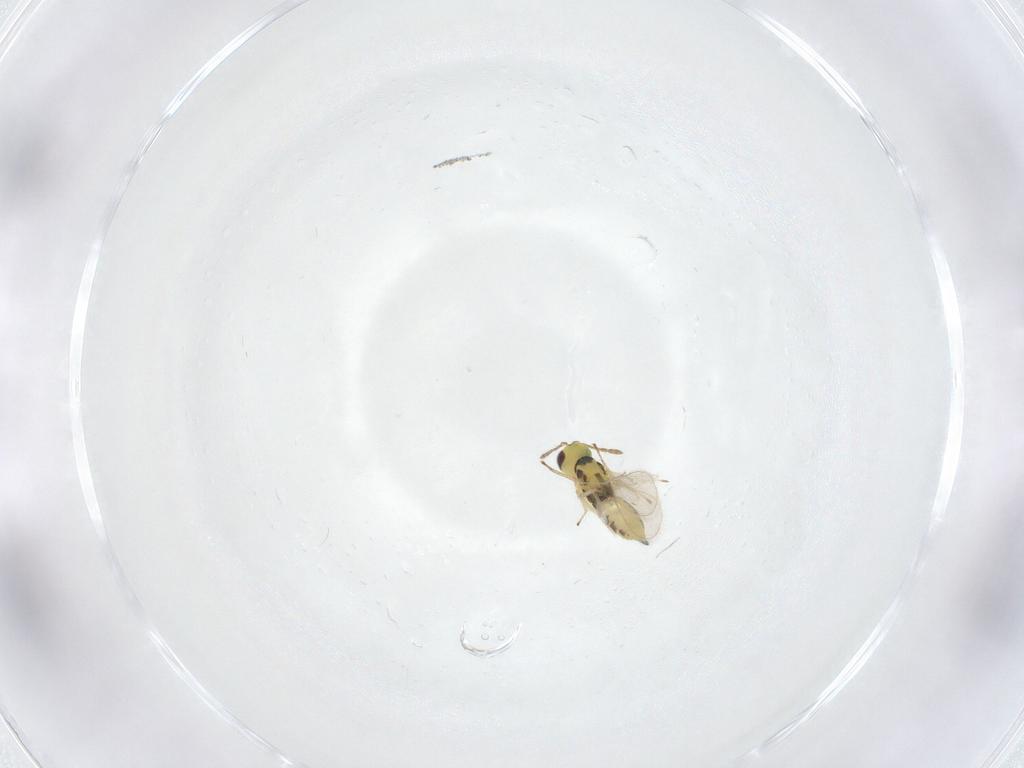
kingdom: Animalia
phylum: Arthropoda
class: Insecta
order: Hymenoptera
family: Eulophidae
